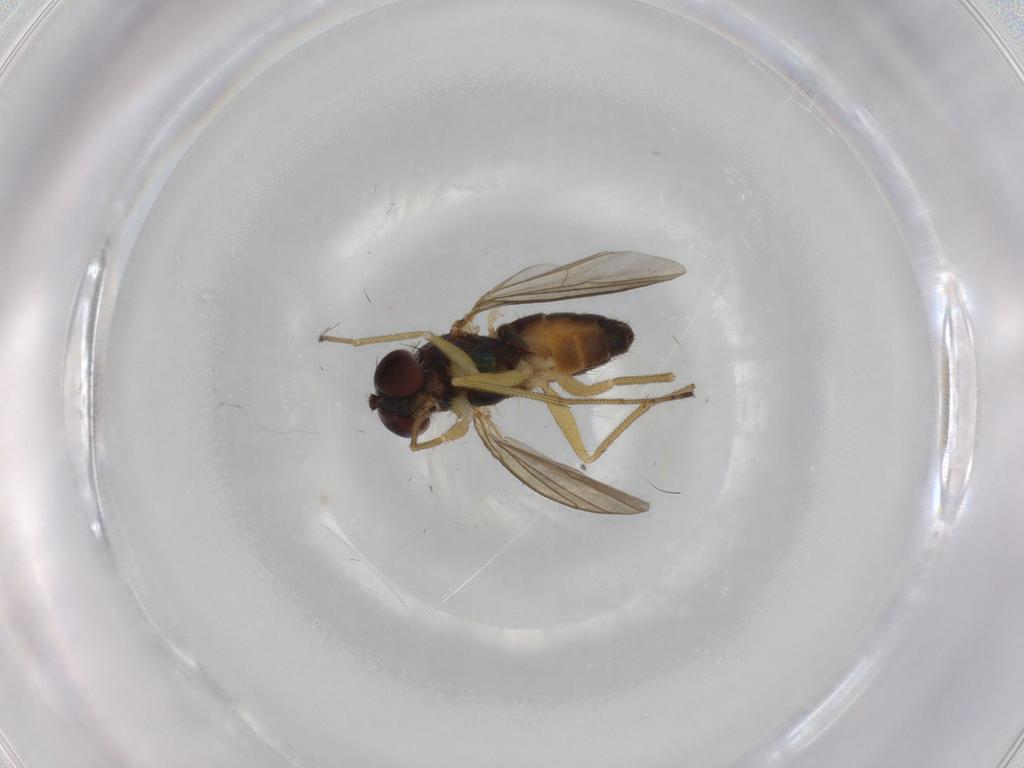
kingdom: Animalia
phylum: Arthropoda
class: Insecta
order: Diptera
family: Dolichopodidae
